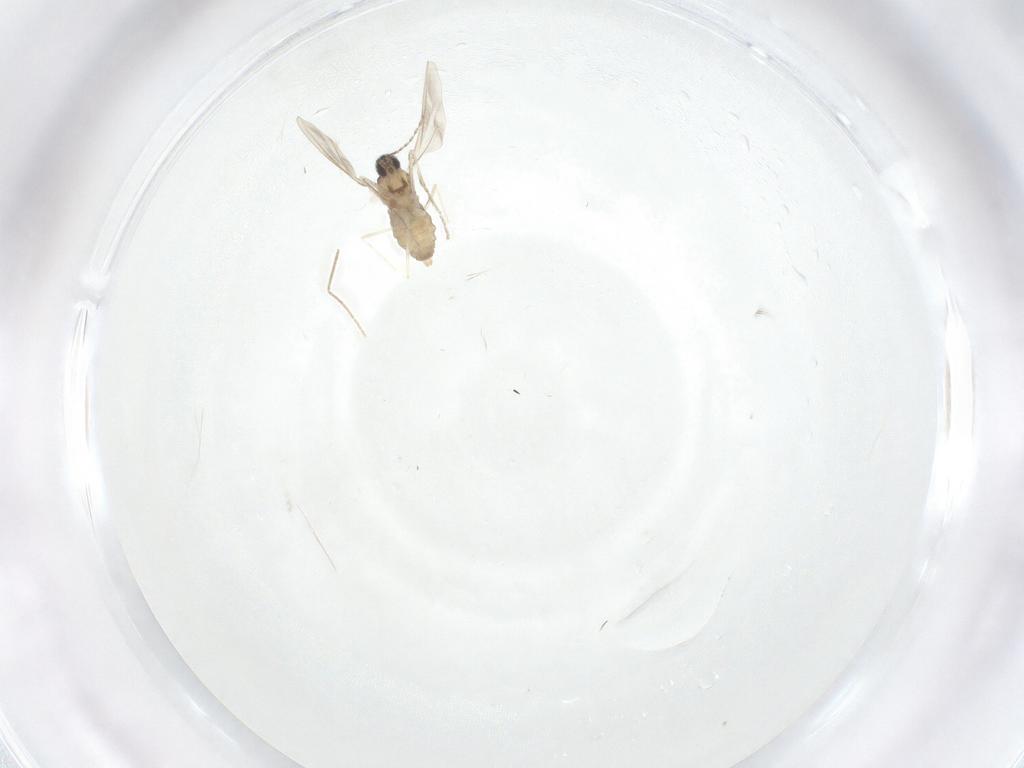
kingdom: Animalia
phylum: Arthropoda
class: Insecta
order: Diptera
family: Cecidomyiidae
